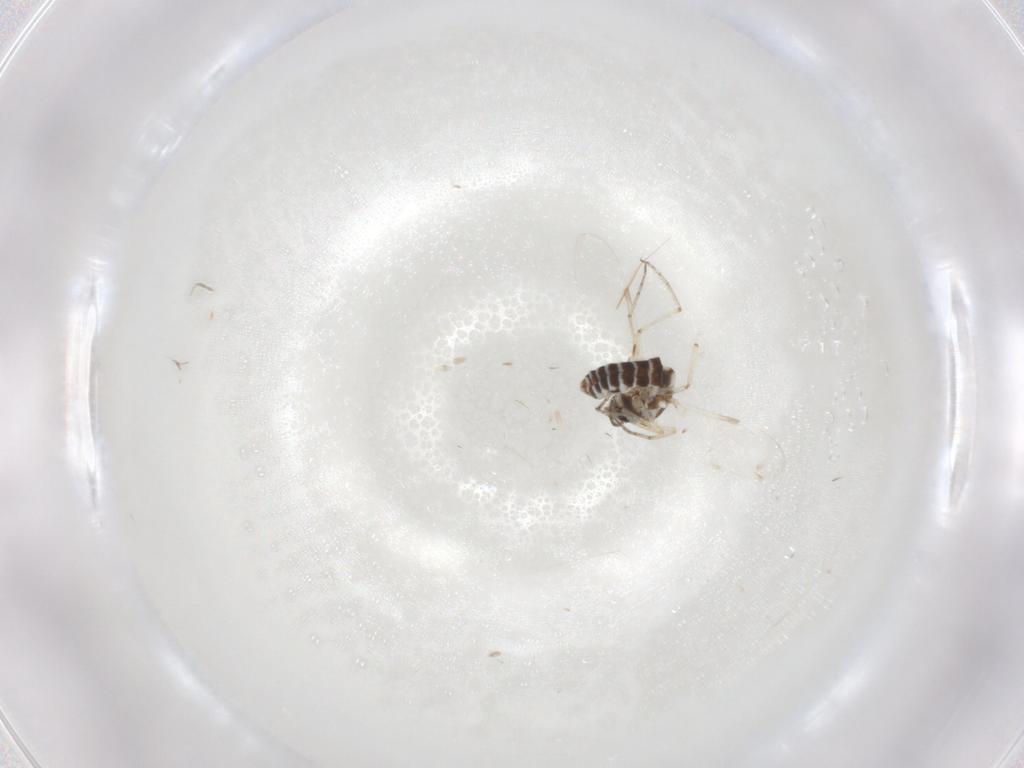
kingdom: Animalia
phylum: Arthropoda
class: Insecta
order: Diptera
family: Ceratopogonidae
